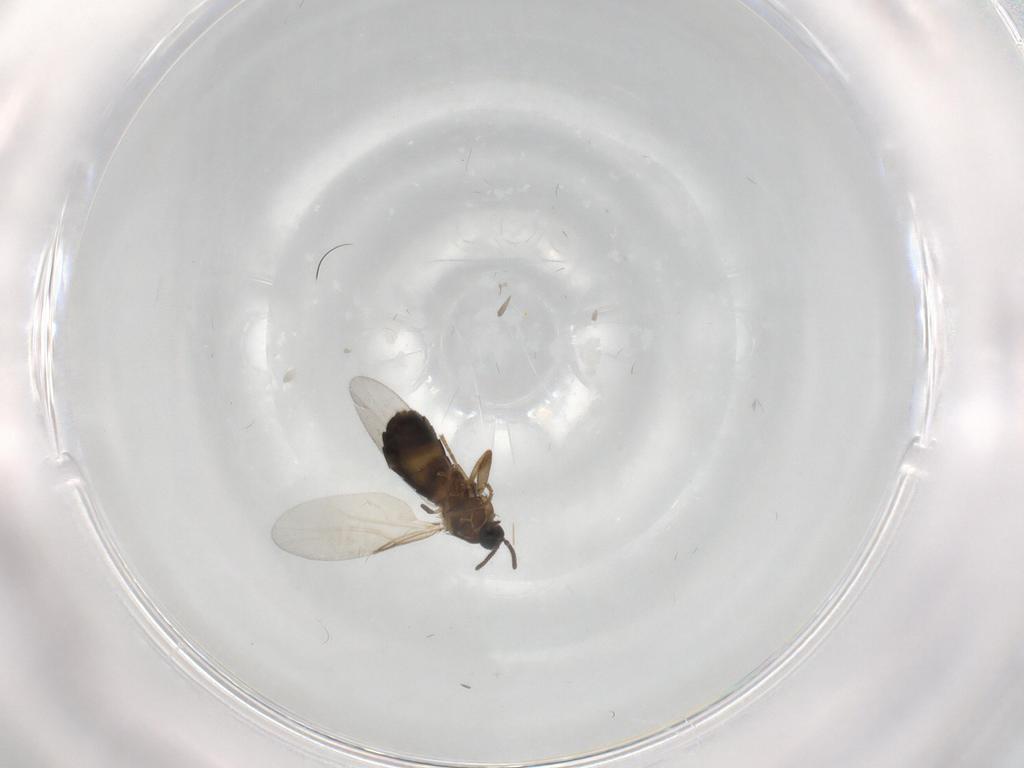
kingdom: Animalia
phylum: Arthropoda
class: Insecta
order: Diptera
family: Scatopsidae
